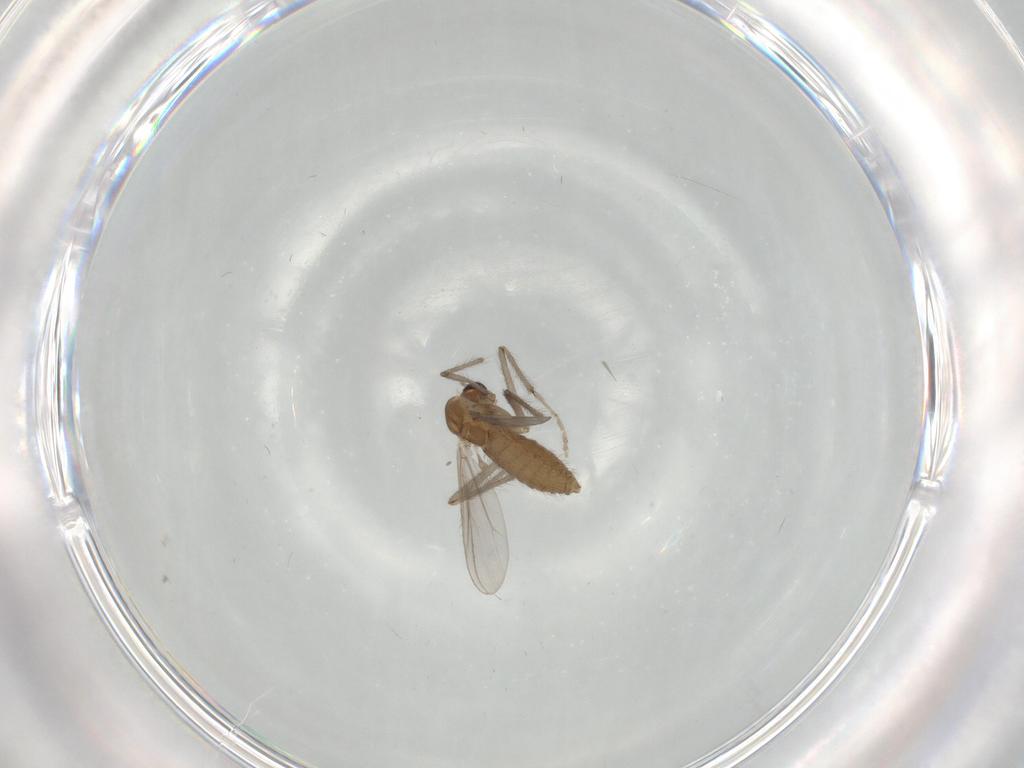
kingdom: Animalia
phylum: Arthropoda
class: Insecta
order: Diptera
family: Chironomidae
